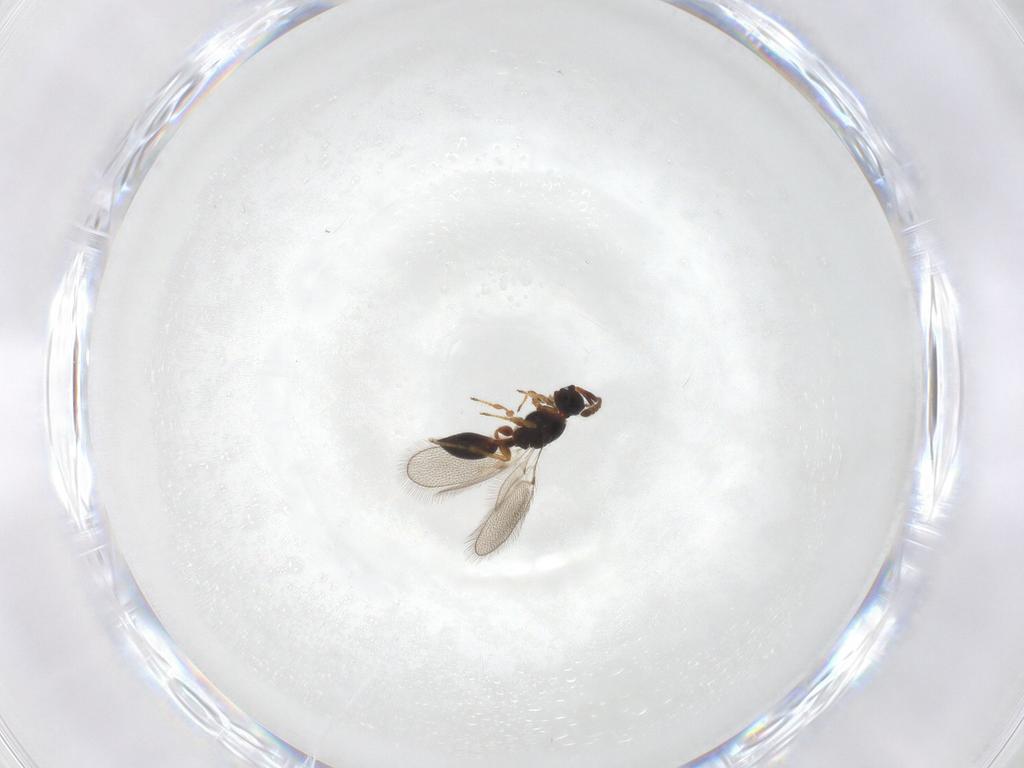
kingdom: Animalia
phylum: Arthropoda
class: Insecta
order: Hymenoptera
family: Diapriidae
